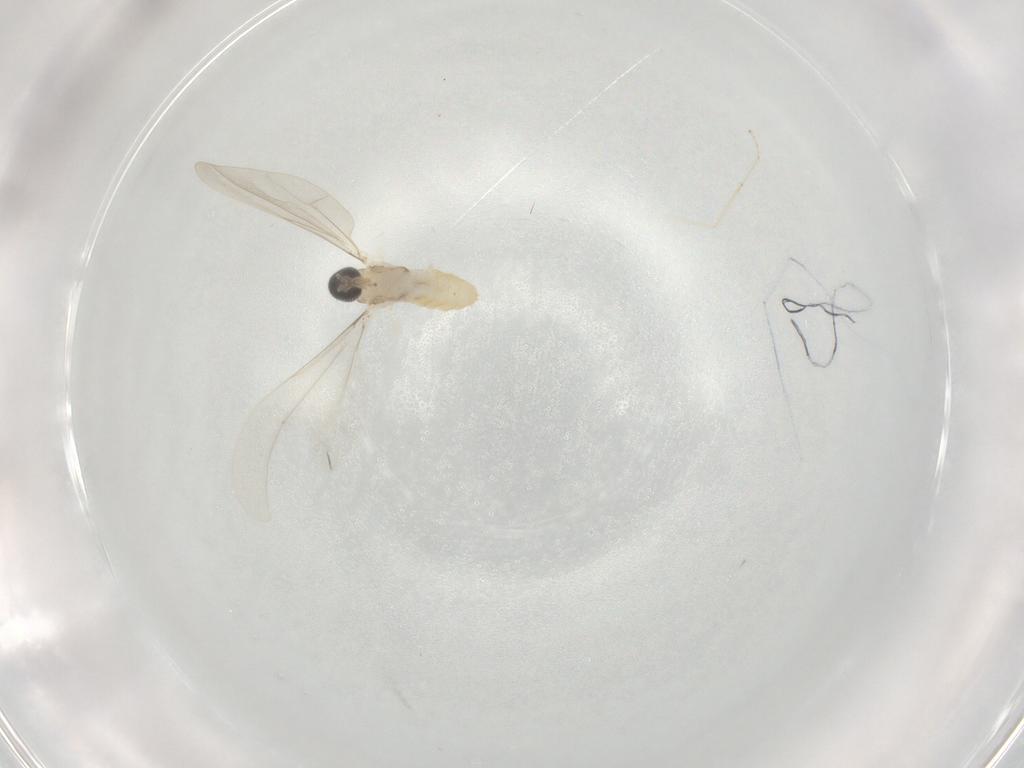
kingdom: Animalia
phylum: Arthropoda
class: Insecta
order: Diptera
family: Cecidomyiidae
